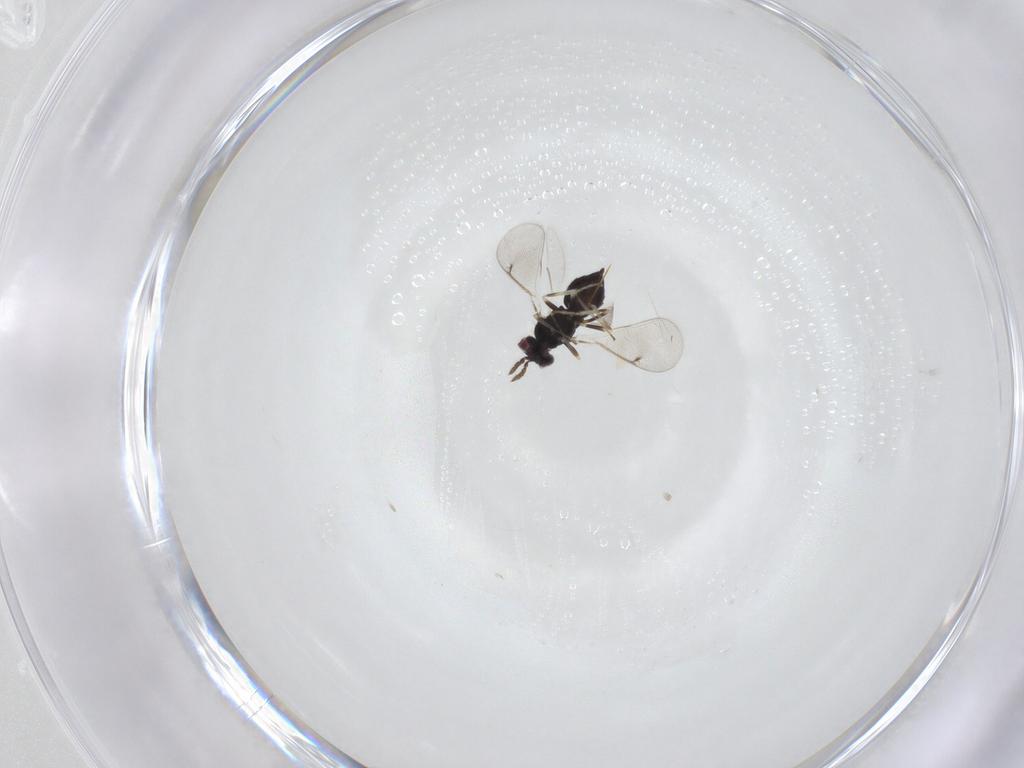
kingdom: Animalia
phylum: Arthropoda
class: Insecta
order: Hymenoptera
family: Eulophidae
